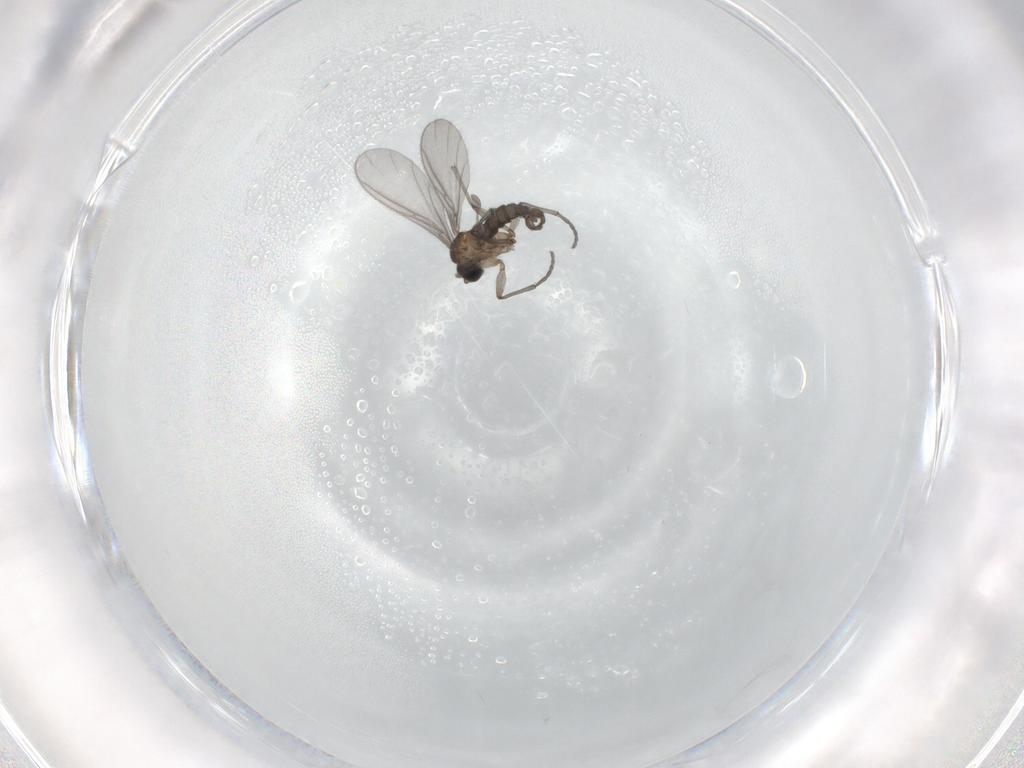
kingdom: Animalia
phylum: Arthropoda
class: Insecta
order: Diptera
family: Sciaridae
